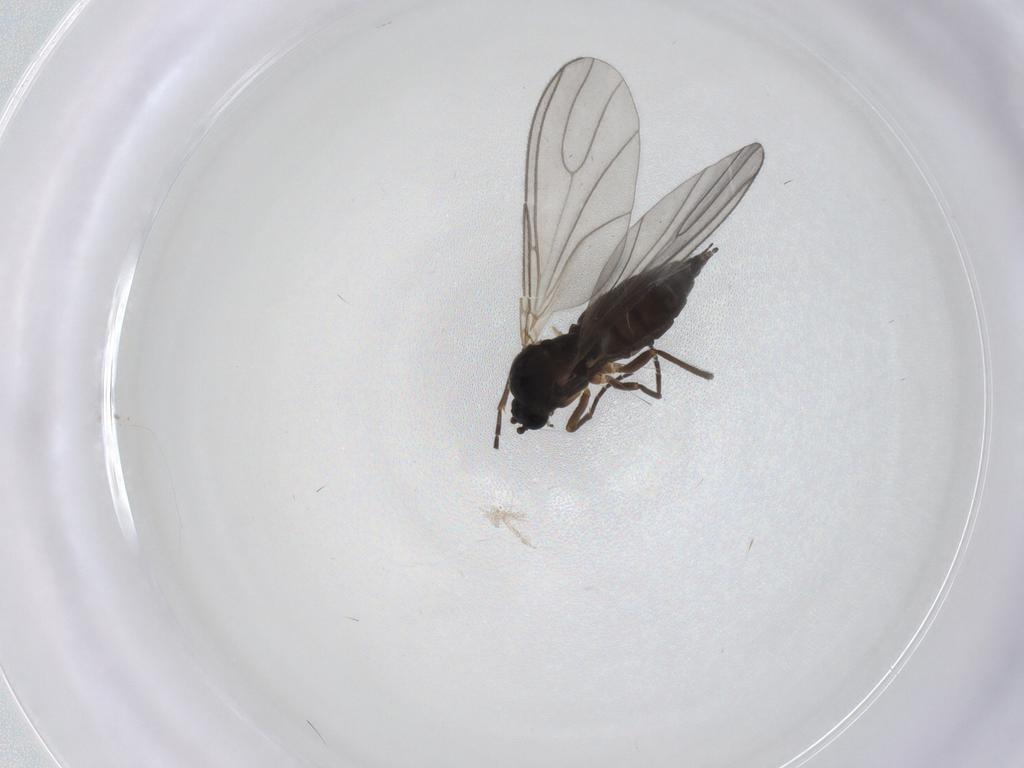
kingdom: Animalia
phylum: Arthropoda
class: Insecta
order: Diptera
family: Sciaridae
